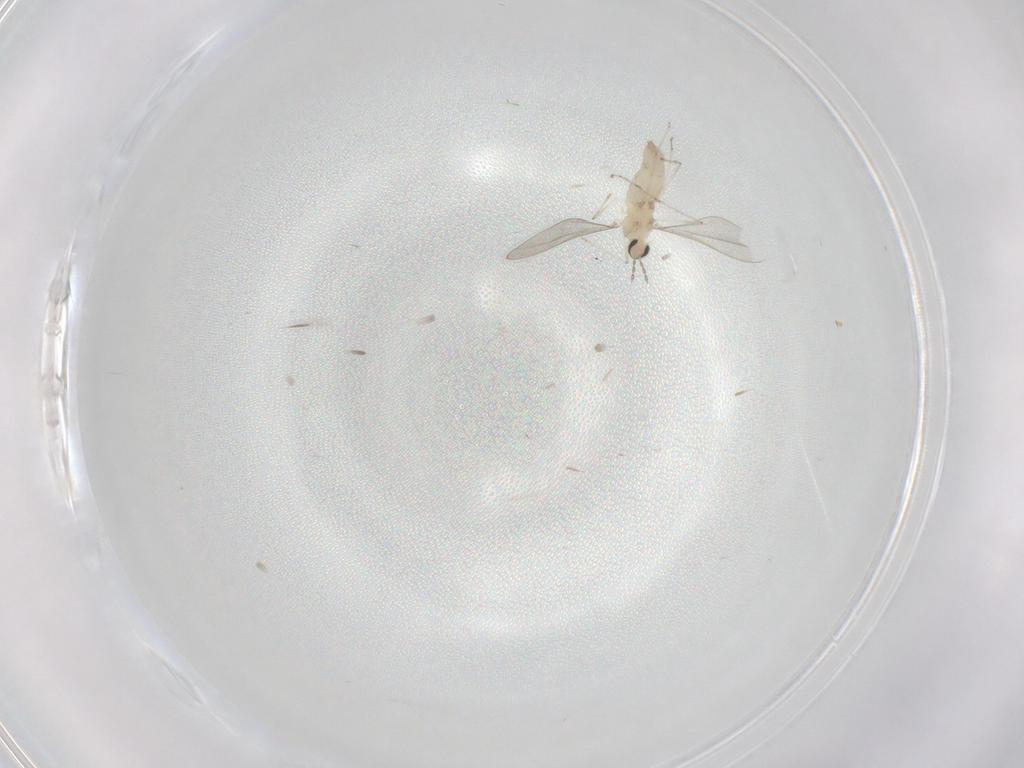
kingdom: Animalia
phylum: Arthropoda
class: Insecta
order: Diptera
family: Cecidomyiidae
